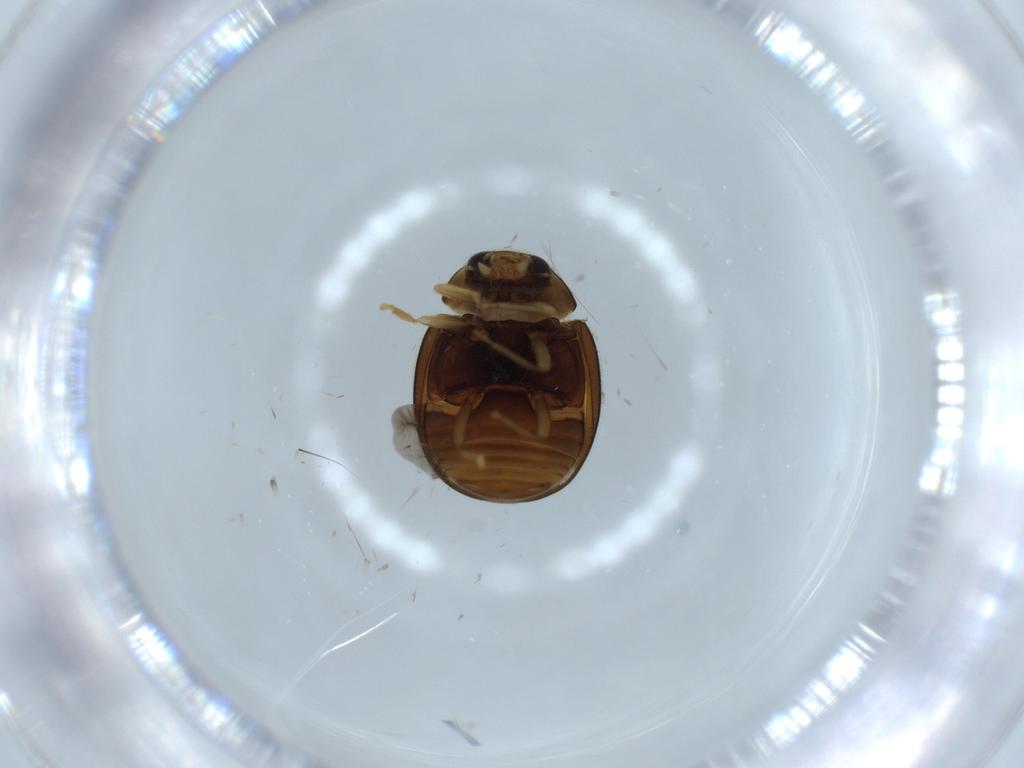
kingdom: Animalia
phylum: Arthropoda
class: Insecta
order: Coleoptera
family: Coccinellidae
